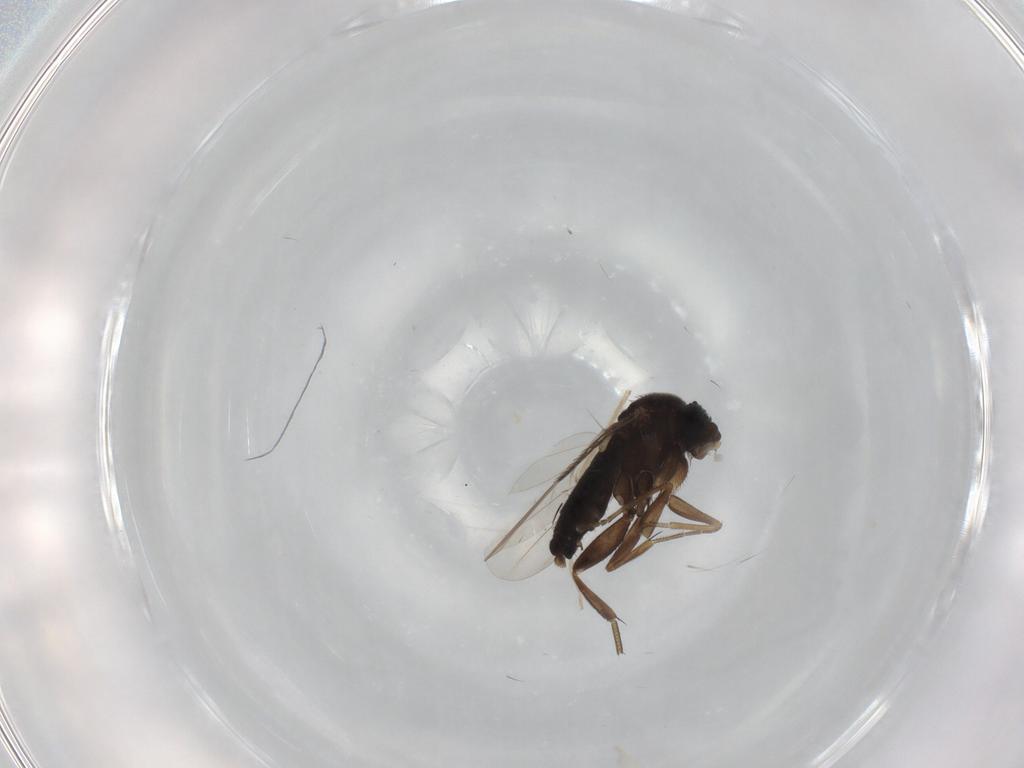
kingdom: Animalia
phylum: Arthropoda
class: Insecta
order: Diptera
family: Phoridae
